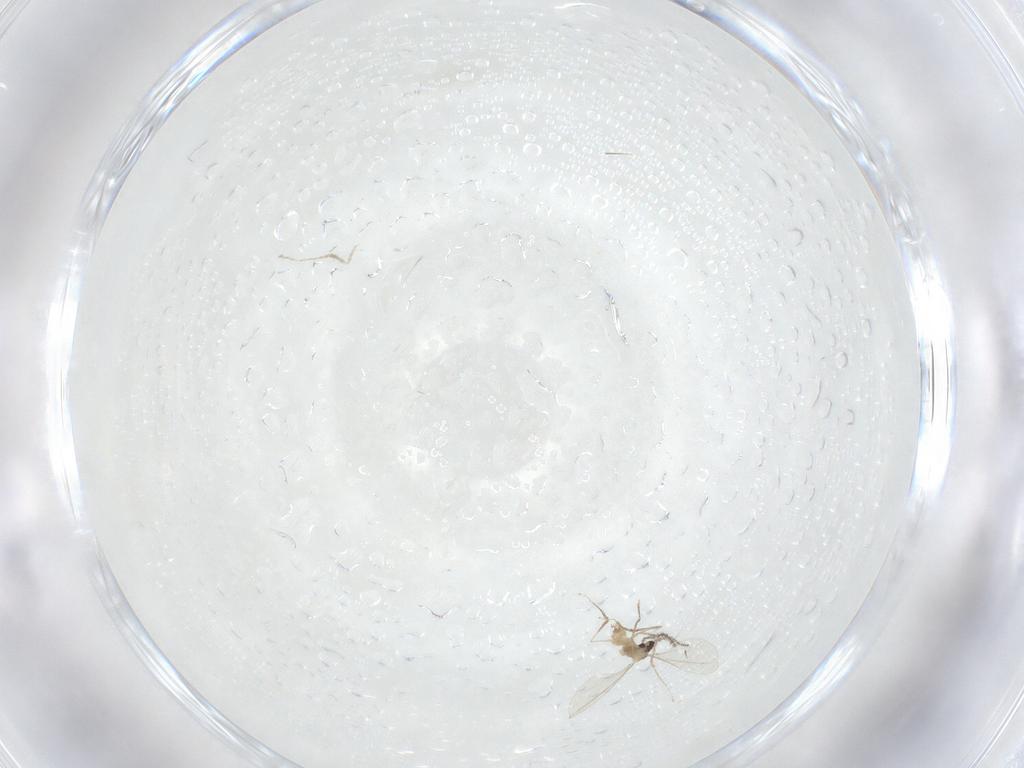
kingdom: Animalia
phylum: Arthropoda
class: Insecta
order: Diptera
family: Cecidomyiidae
